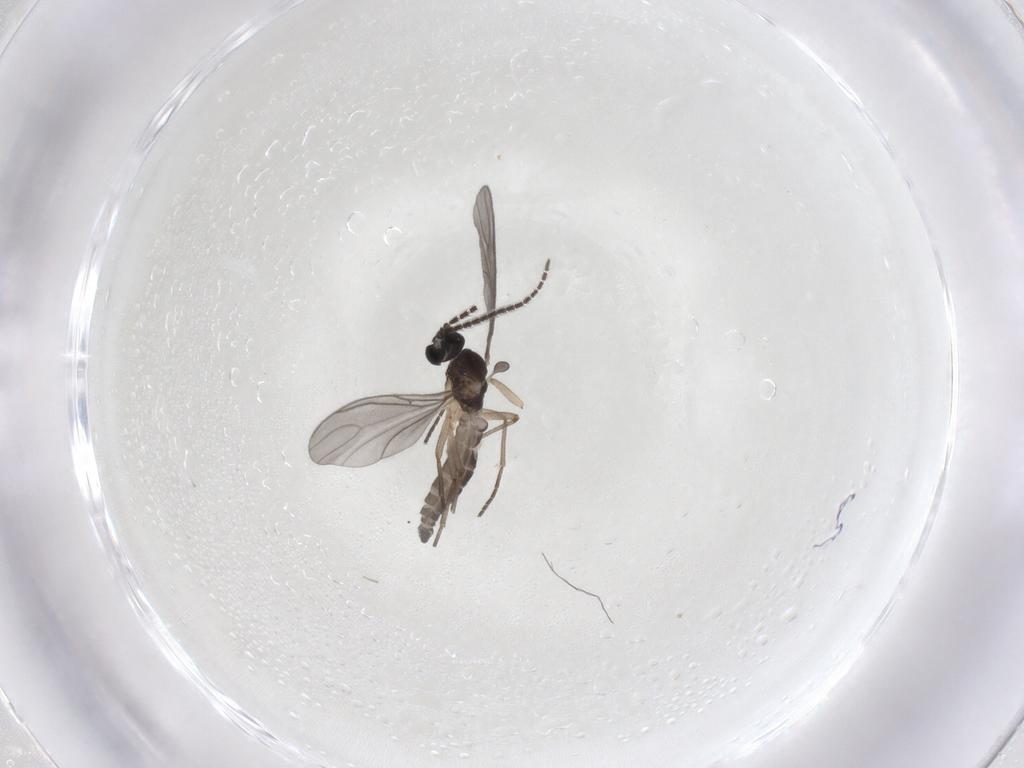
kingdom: Animalia
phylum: Arthropoda
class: Insecta
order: Diptera
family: Cecidomyiidae
